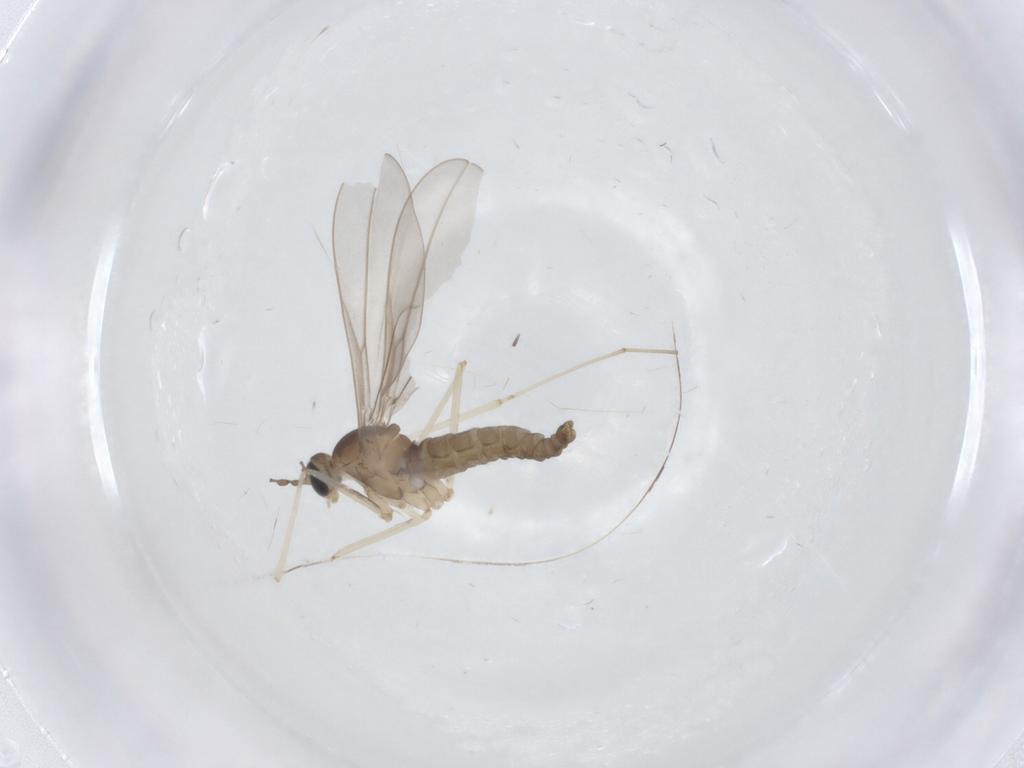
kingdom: Animalia
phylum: Arthropoda
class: Insecta
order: Diptera
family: Cecidomyiidae
